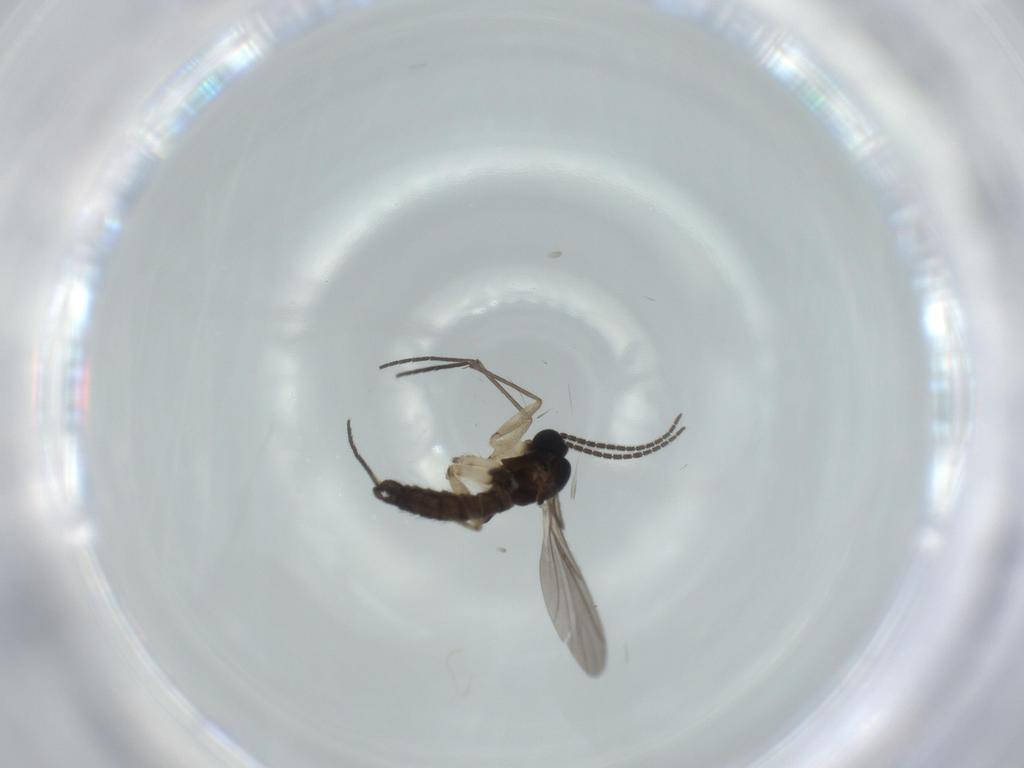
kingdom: Animalia
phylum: Arthropoda
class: Insecta
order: Diptera
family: Sciaridae
